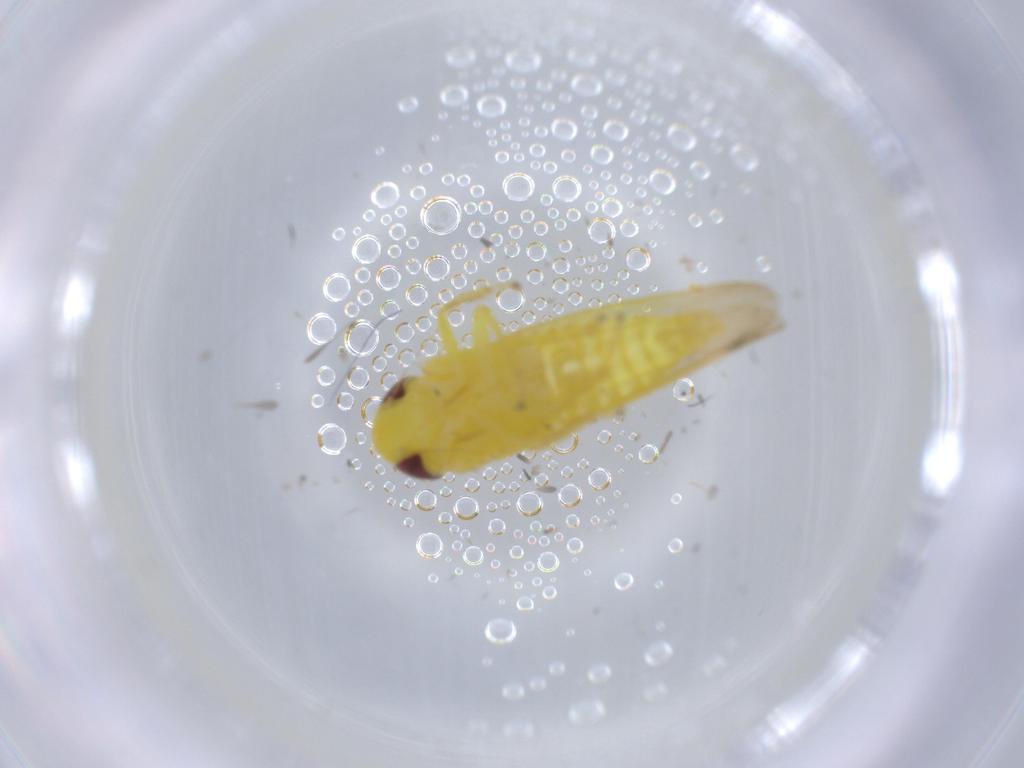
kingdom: Animalia
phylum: Arthropoda
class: Insecta
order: Hemiptera
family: Cicadellidae
